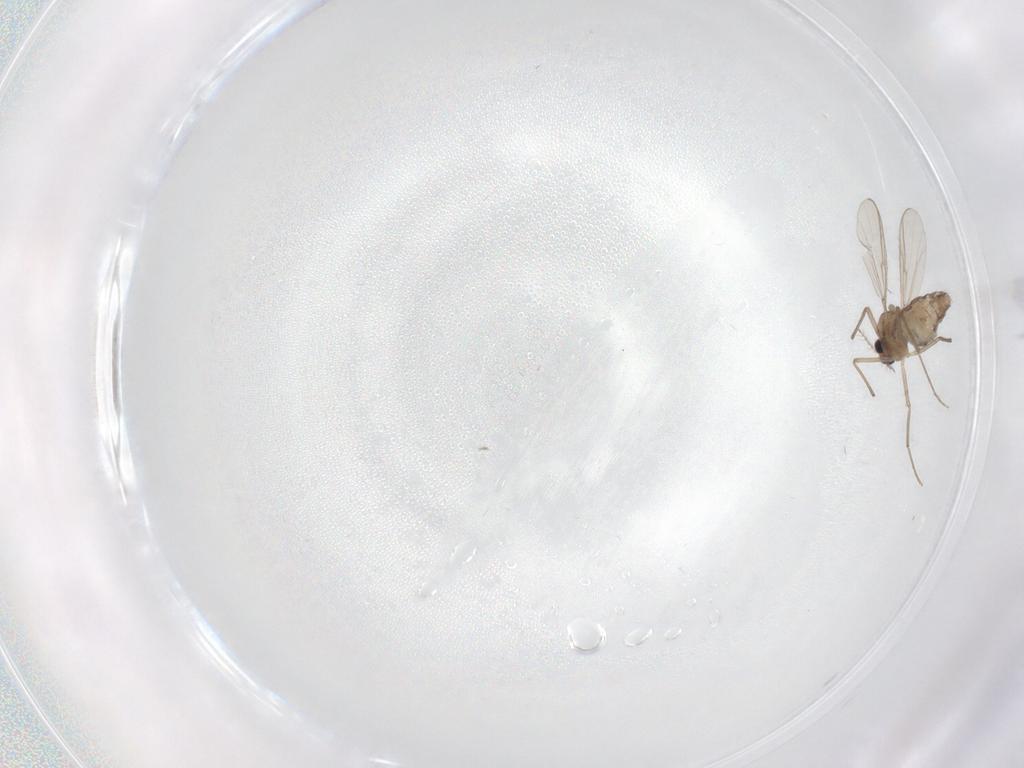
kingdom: Animalia
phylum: Arthropoda
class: Insecta
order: Diptera
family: Chironomidae
